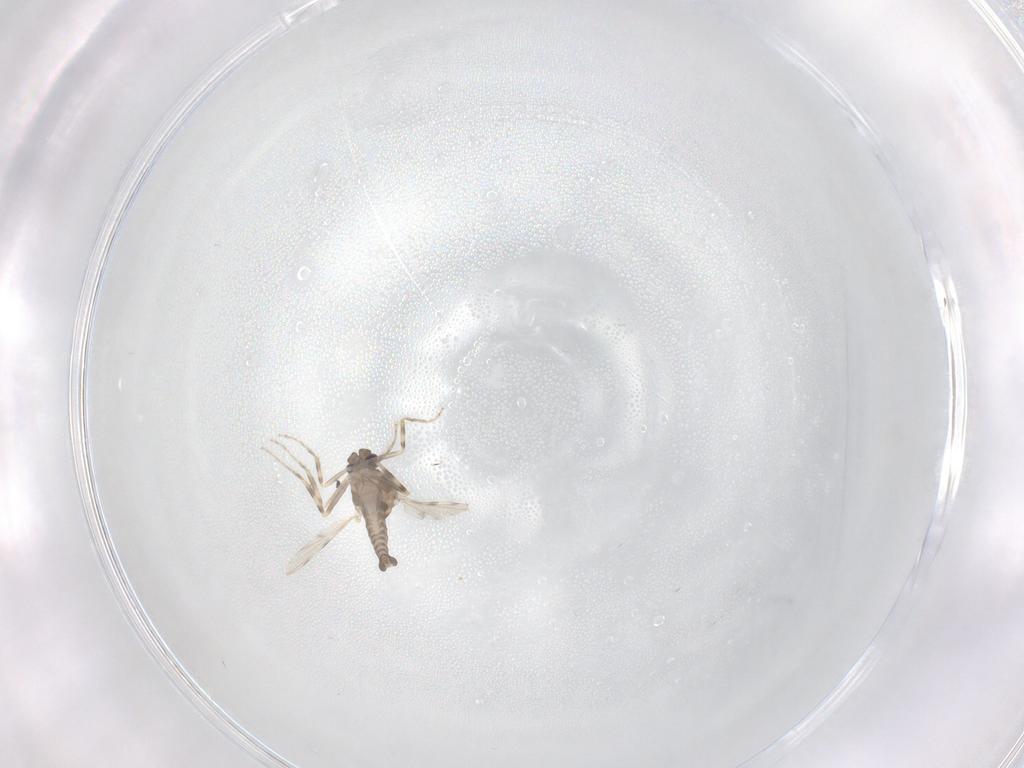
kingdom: Animalia
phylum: Arthropoda
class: Insecta
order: Diptera
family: Ceratopogonidae
